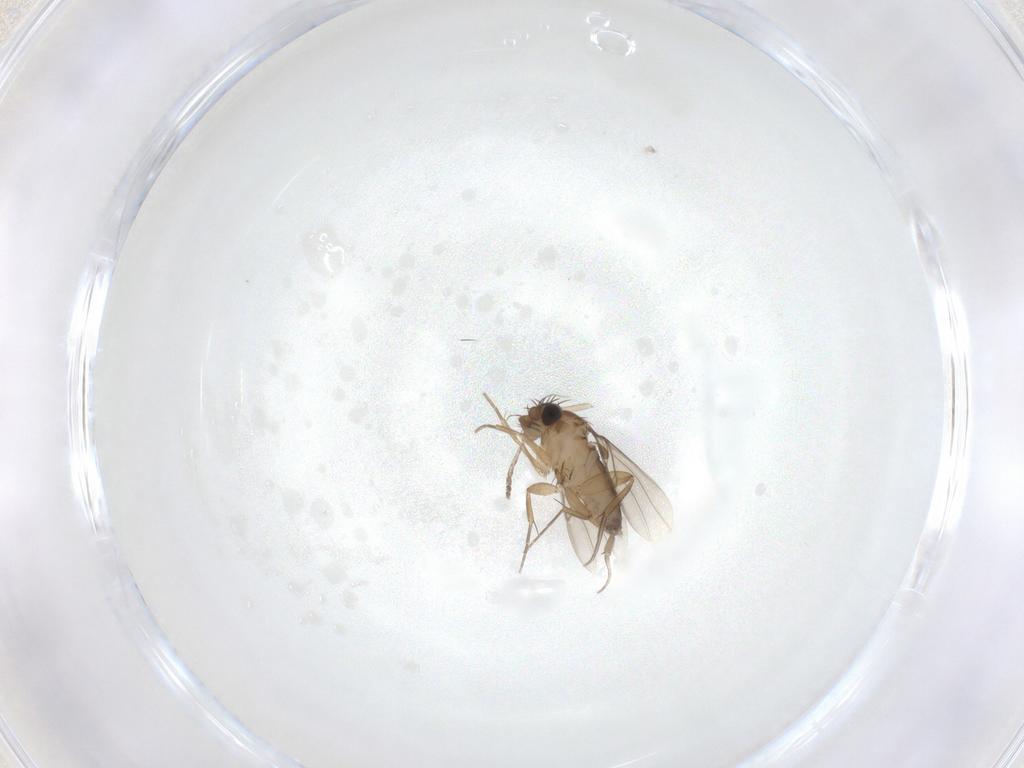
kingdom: Animalia
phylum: Arthropoda
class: Insecta
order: Diptera
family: Phoridae
